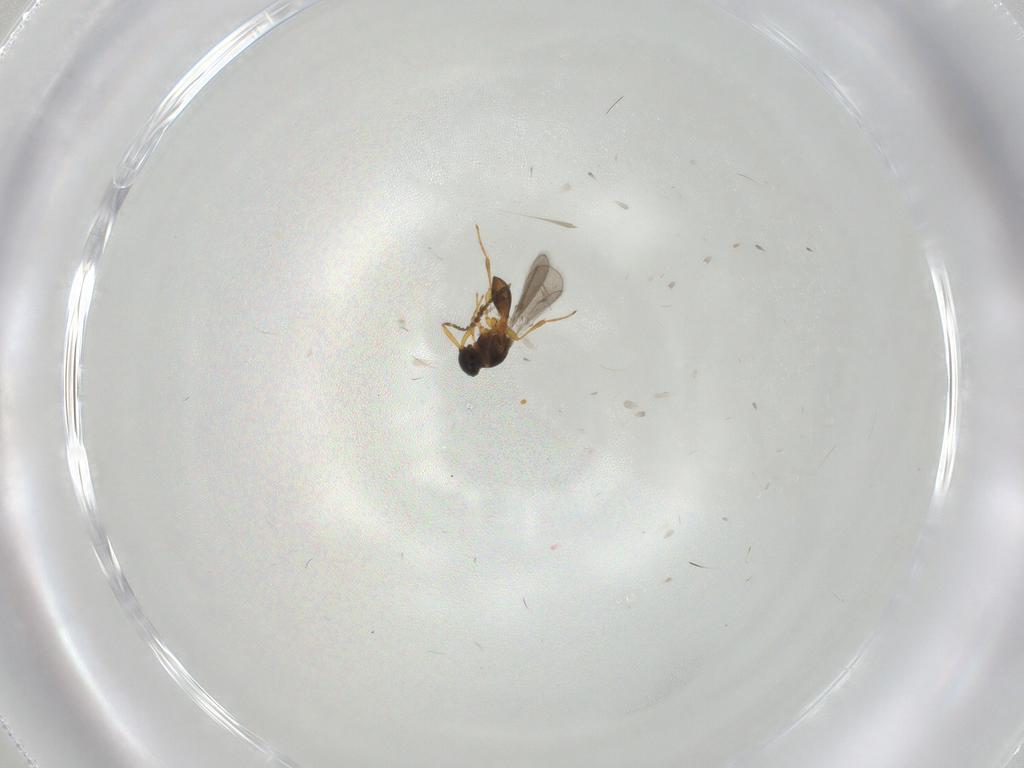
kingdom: Animalia
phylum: Arthropoda
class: Insecta
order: Hymenoptera
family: Platygastridae
